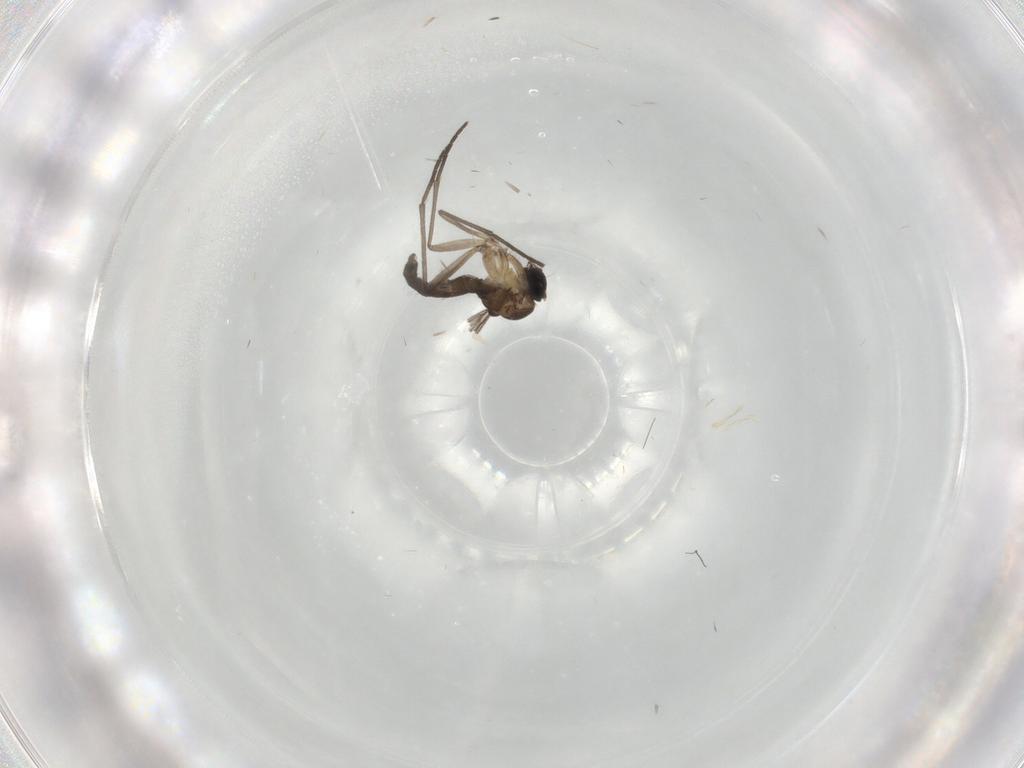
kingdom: Animalia
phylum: Arthropoda
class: Insecta
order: Diptera
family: Sciaridae
